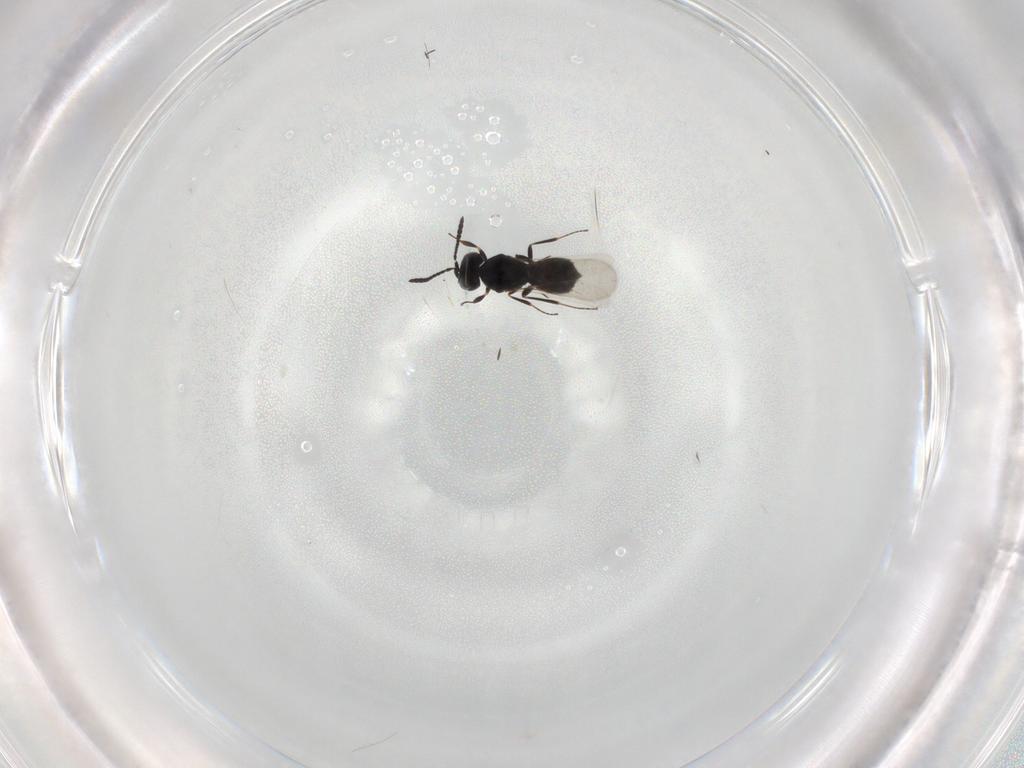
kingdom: Animalia
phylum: Arthropoda
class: Insecta
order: Hymenoptera
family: Scelionidae
